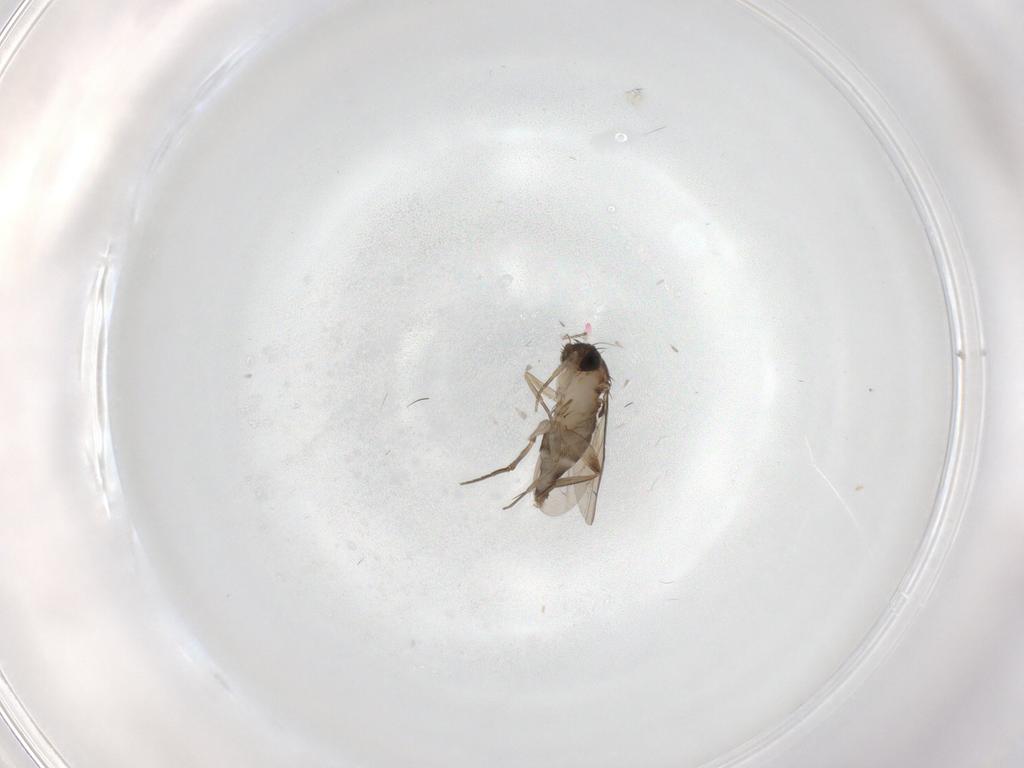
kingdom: Animalia
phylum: Arthropoda
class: Insecta
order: Diptera
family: Phoridae
